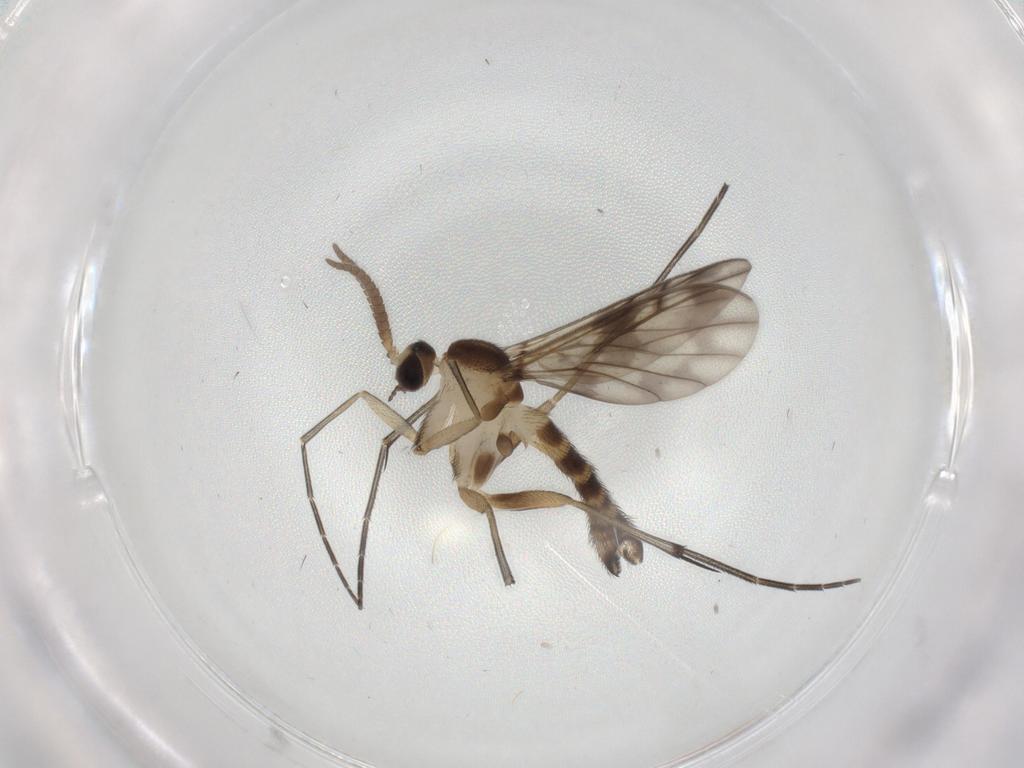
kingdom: Animalia
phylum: Arthropoda
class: Insecta
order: Diptera
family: Keroplatidae
